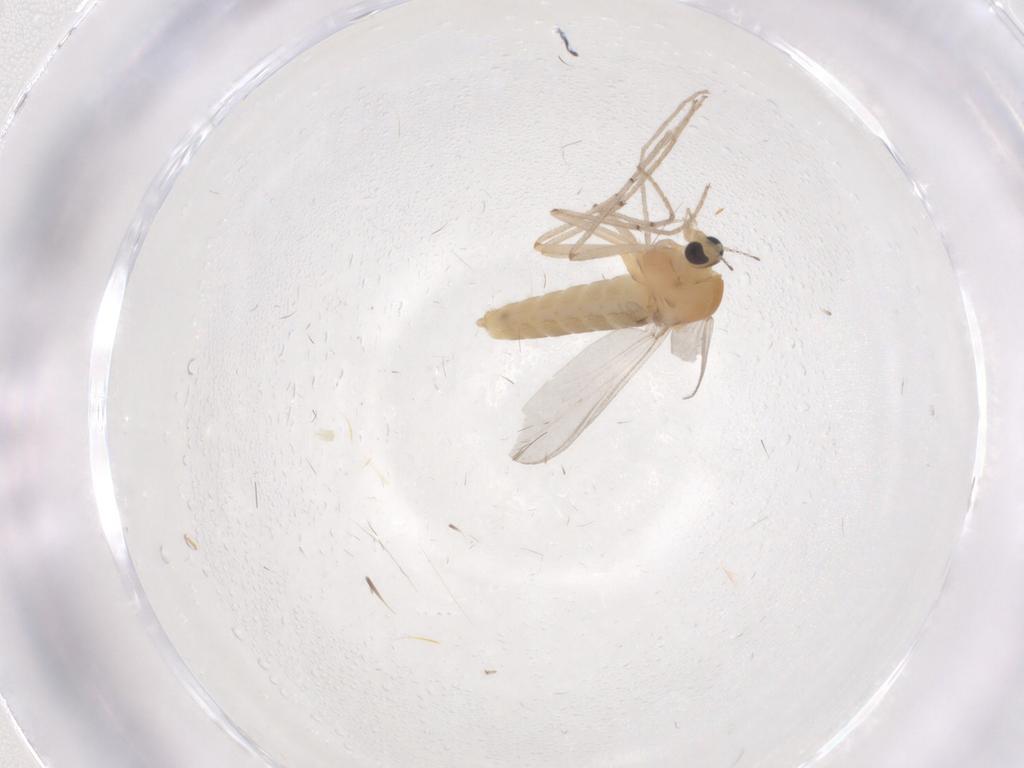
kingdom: Animalia
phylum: Arthropoda
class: Insecta
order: Diptera
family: Chironomidae
